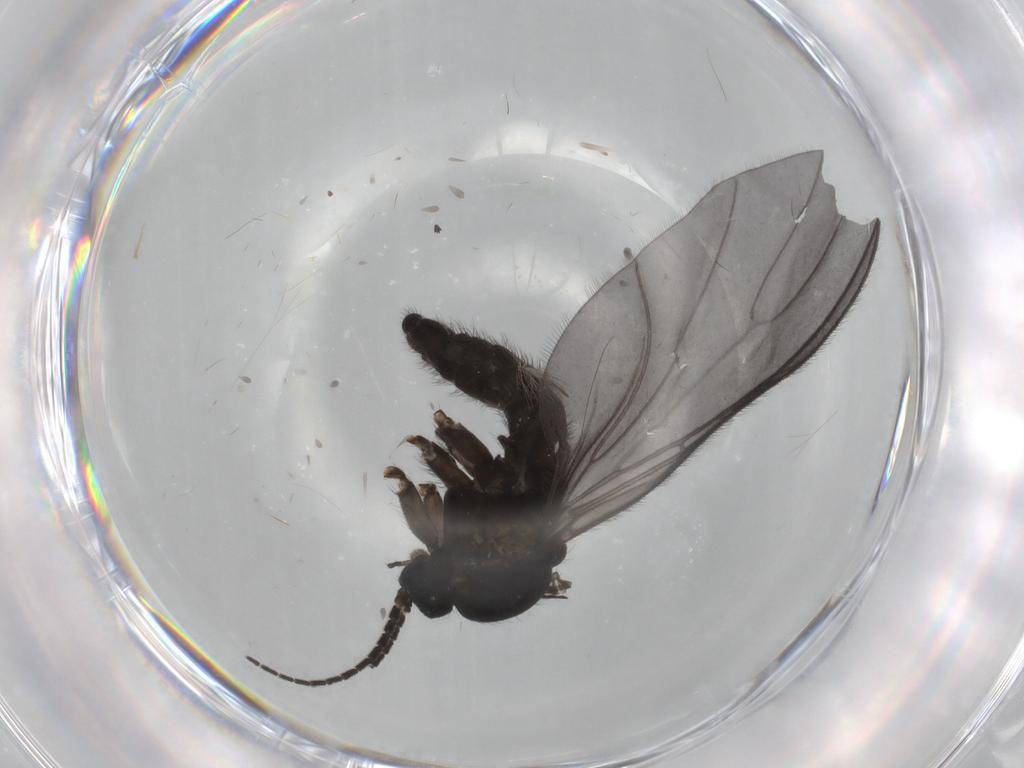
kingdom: Animalia
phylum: Arthropoda
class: Insecta
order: Diptera
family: Sciaridae
